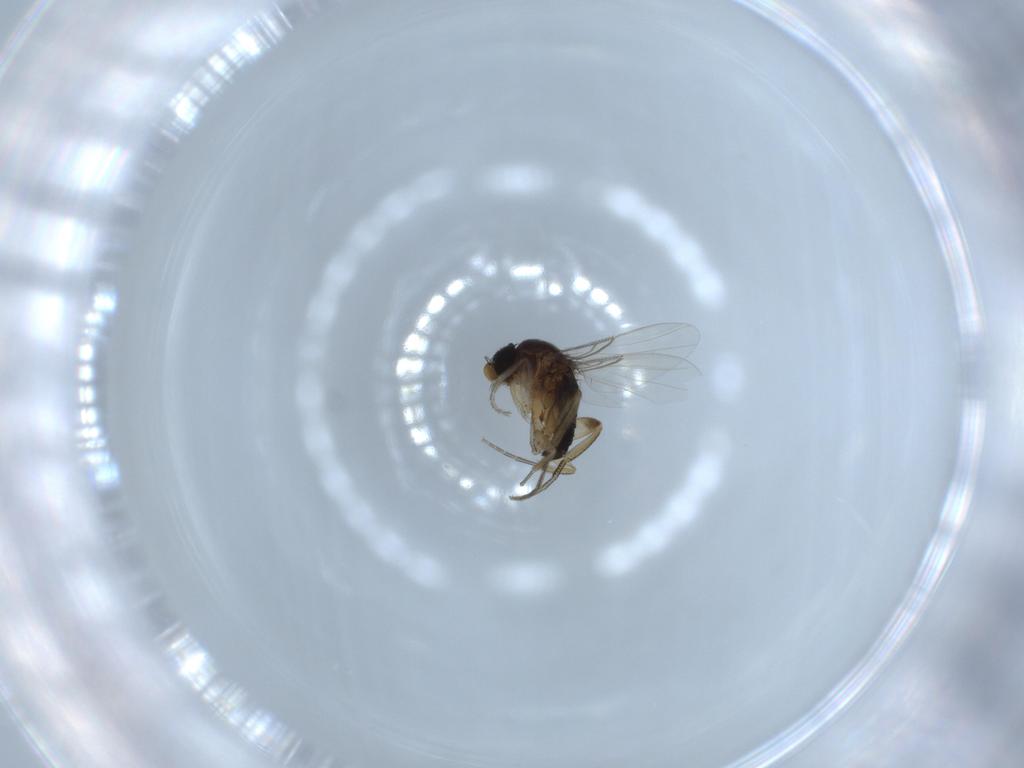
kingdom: Animalia
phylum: Arthropoda
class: Insecta
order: Diptera
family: Phoridae
